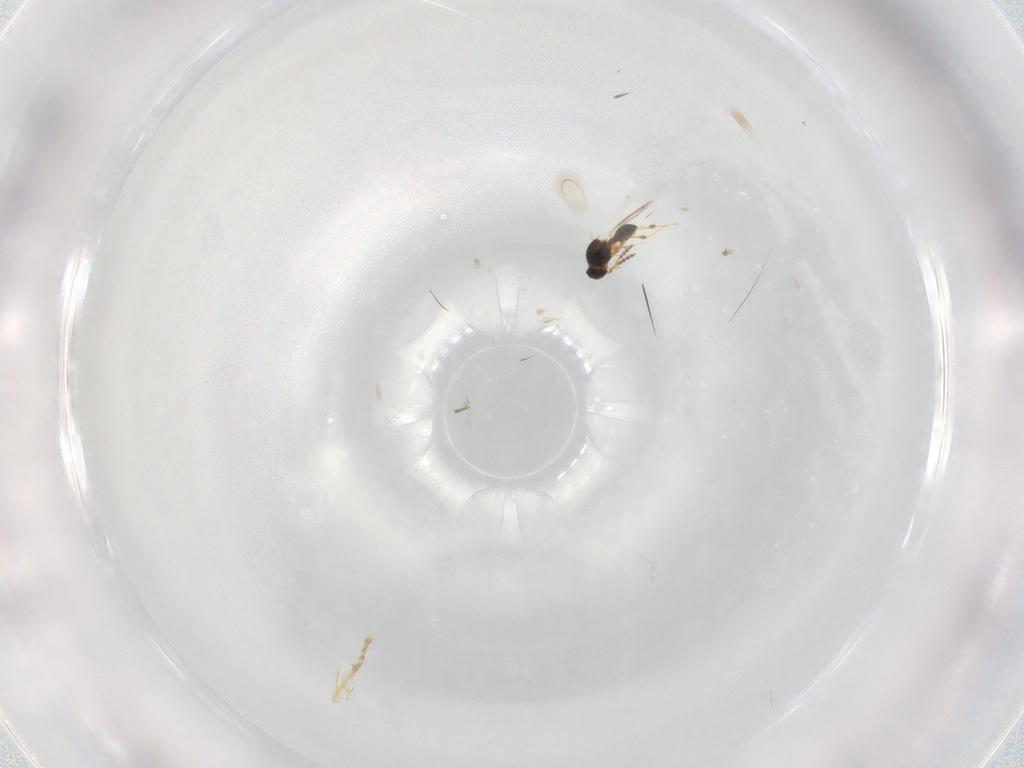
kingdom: Animalia
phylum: Arthropoda
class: Insecta
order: Hymenoptera
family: Platygastridae
